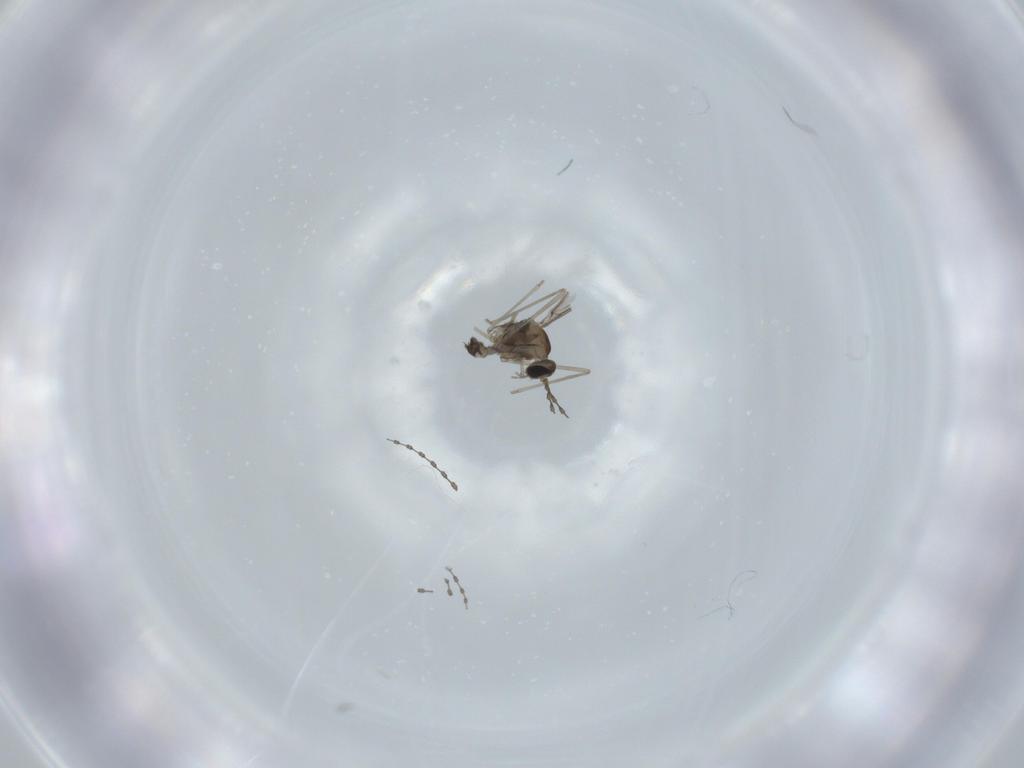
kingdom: Animalia
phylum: Arthropoda
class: Insecta
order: Diptera
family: Cecidomyiidae
